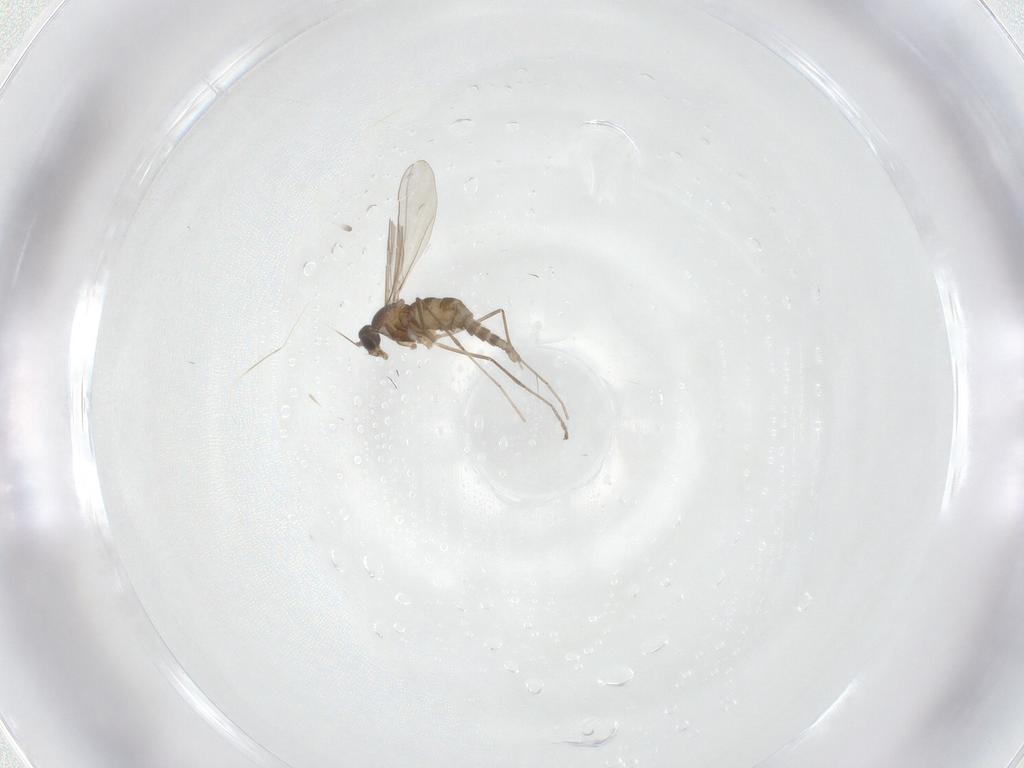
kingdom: Animalia
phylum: Arthropoda
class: Insecta
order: Diptera
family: Cecidomyiidae
